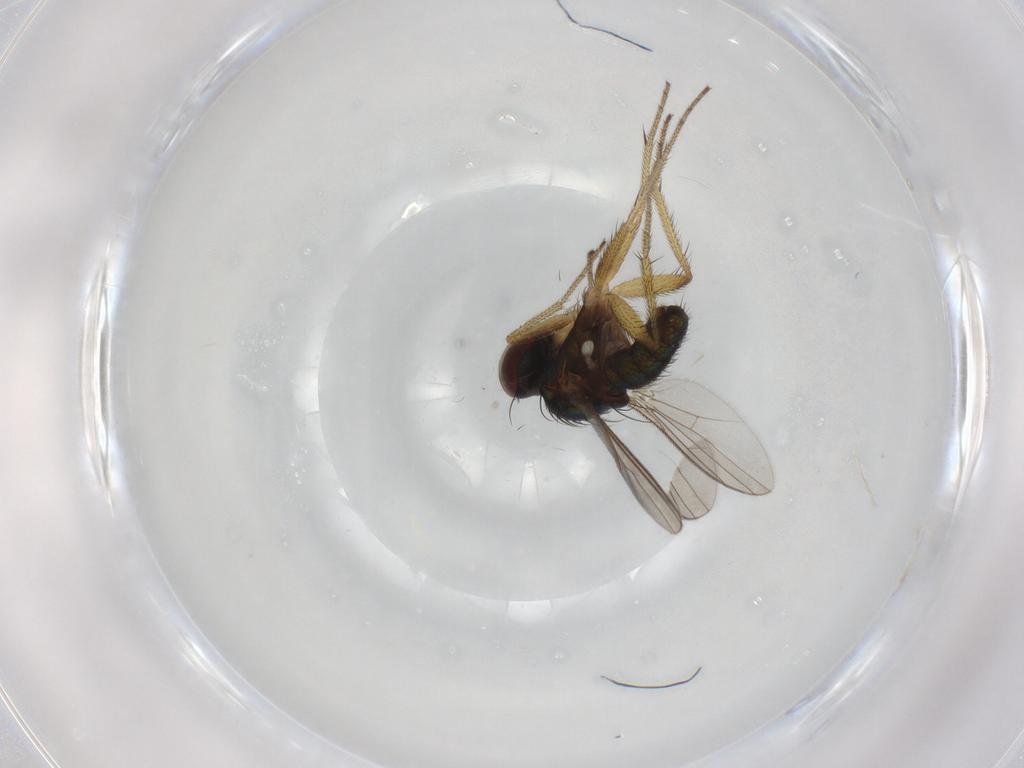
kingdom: Animalia
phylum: Arthropoda
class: Insecta
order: Diptera
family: Dolichopodidae
